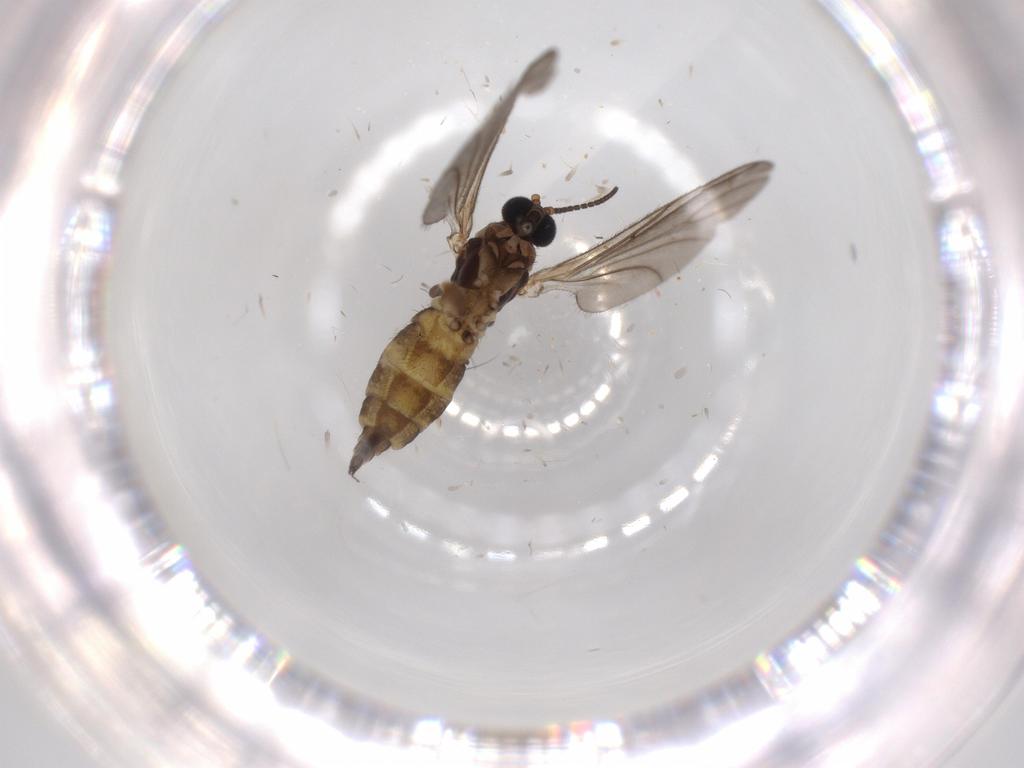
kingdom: Animalia
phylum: Arthropoda
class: Insecta
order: Diptera
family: Sciaridae
